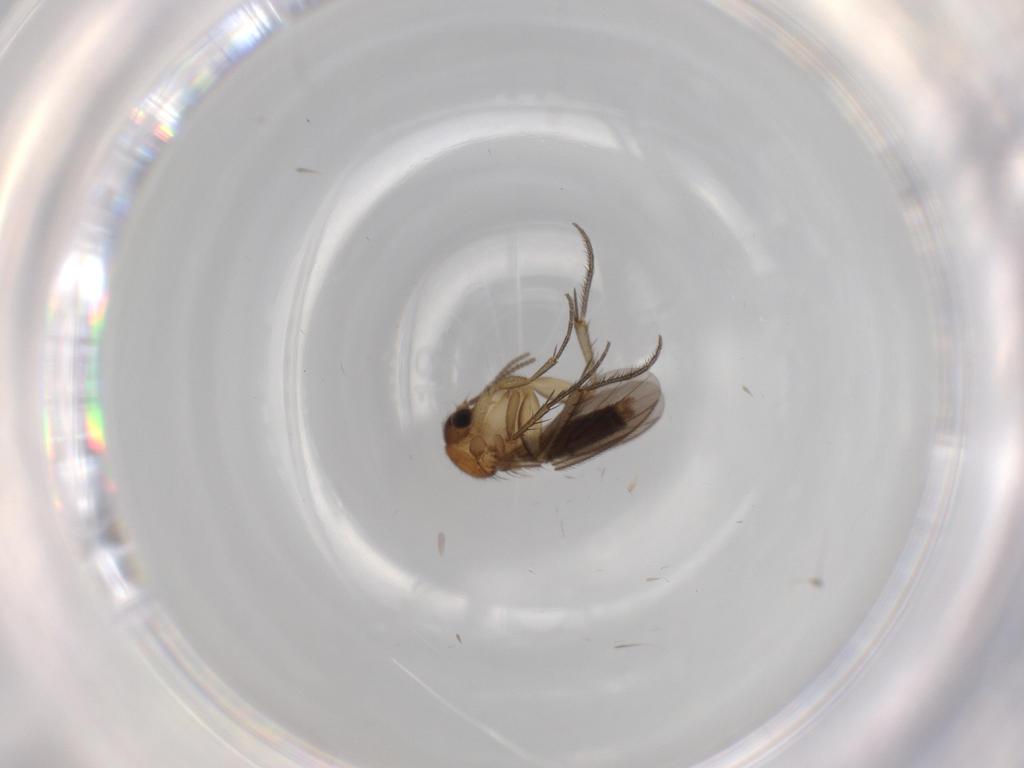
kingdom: Animalia
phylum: Arthropoda
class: Insecta
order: Diptera
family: Mycetophilidae
